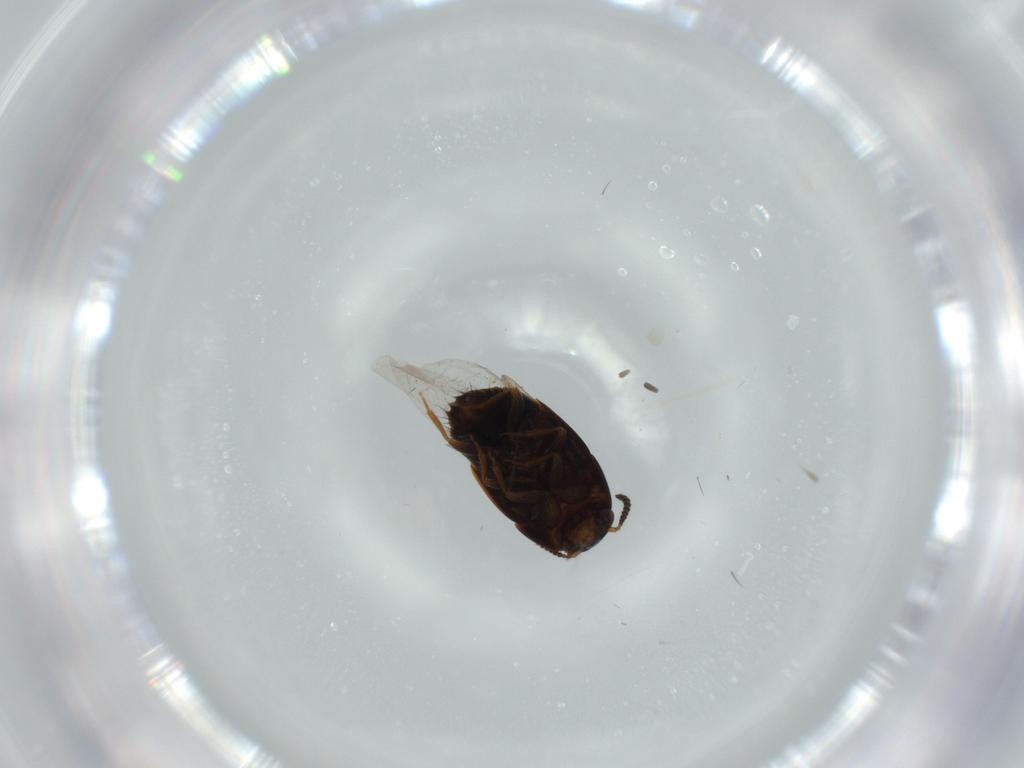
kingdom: Animalia
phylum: Arthropoda
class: Insecta
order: Coleoptera
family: Chrysomelidae
